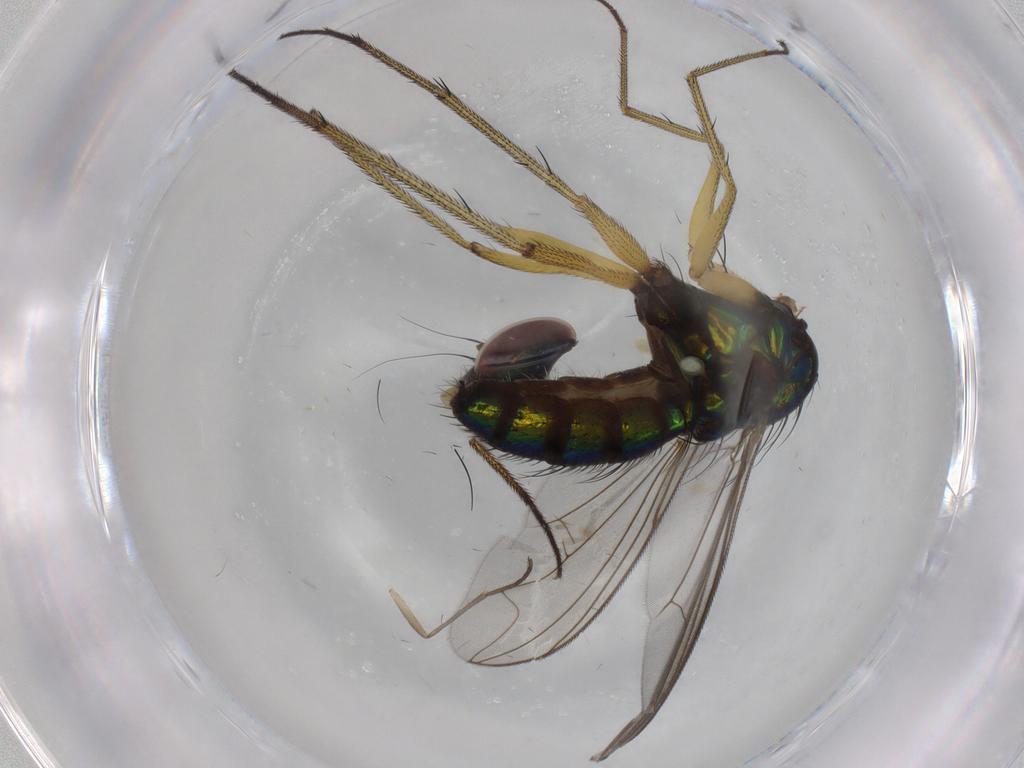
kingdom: Animalia
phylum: Arthropoda
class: Insecta
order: Diptera
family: Dolichopodidae
